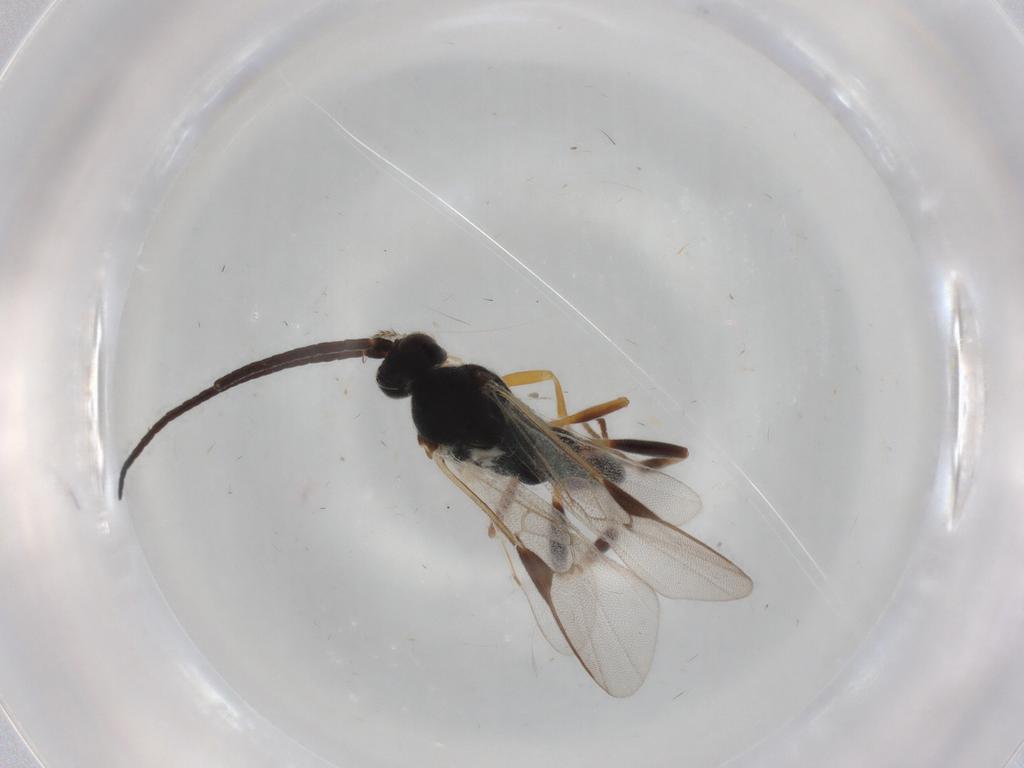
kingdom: Animalia
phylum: Arthropoda
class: Insecta
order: Hymenoptera
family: Braconidae
